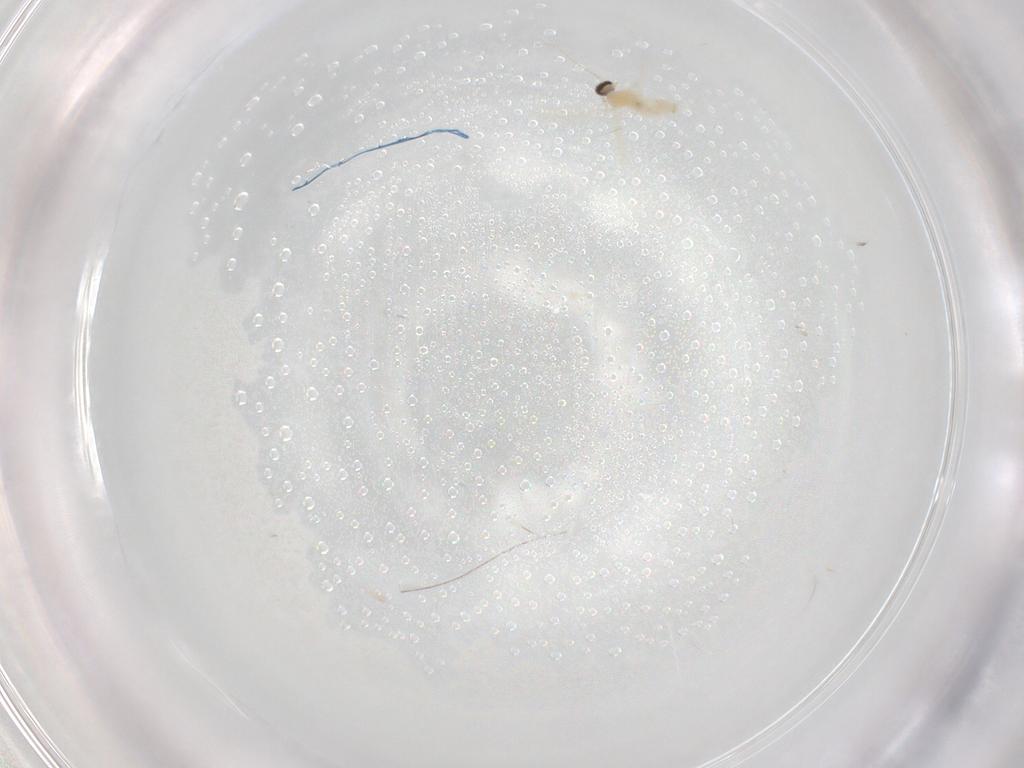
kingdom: Animalia
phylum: Arthropoda
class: Insecta
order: Diptera
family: Cecidomyiidae
